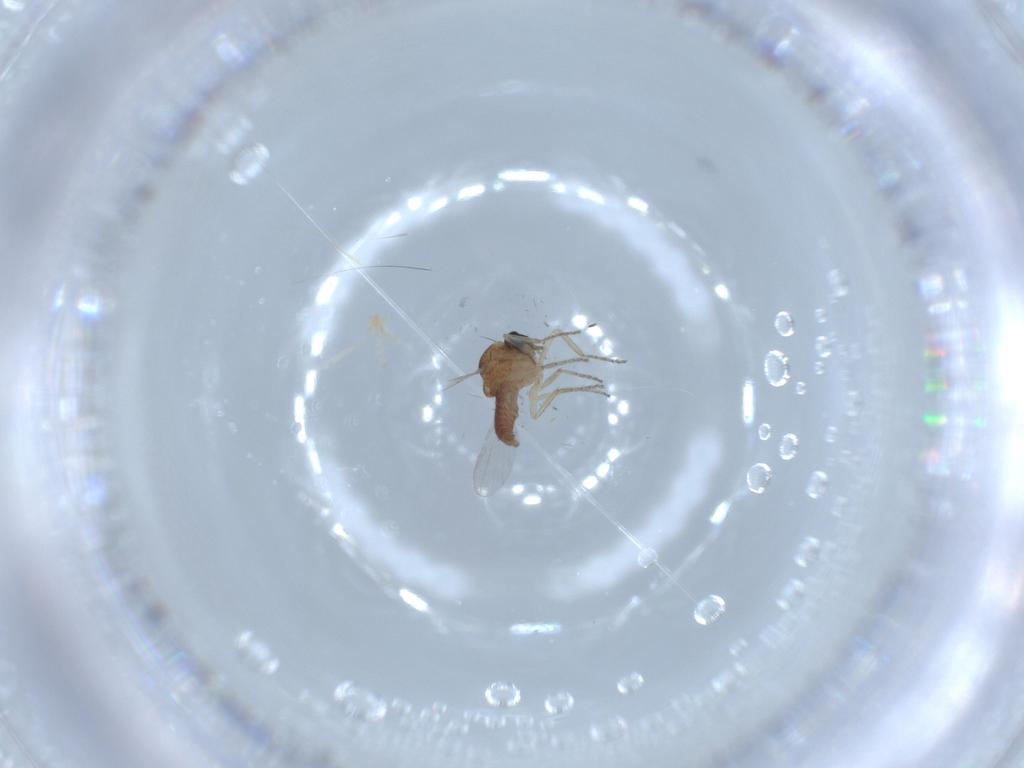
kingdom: Animalia
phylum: Arthropoda
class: Insecta
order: Diptera
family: Ceratopogonidae
